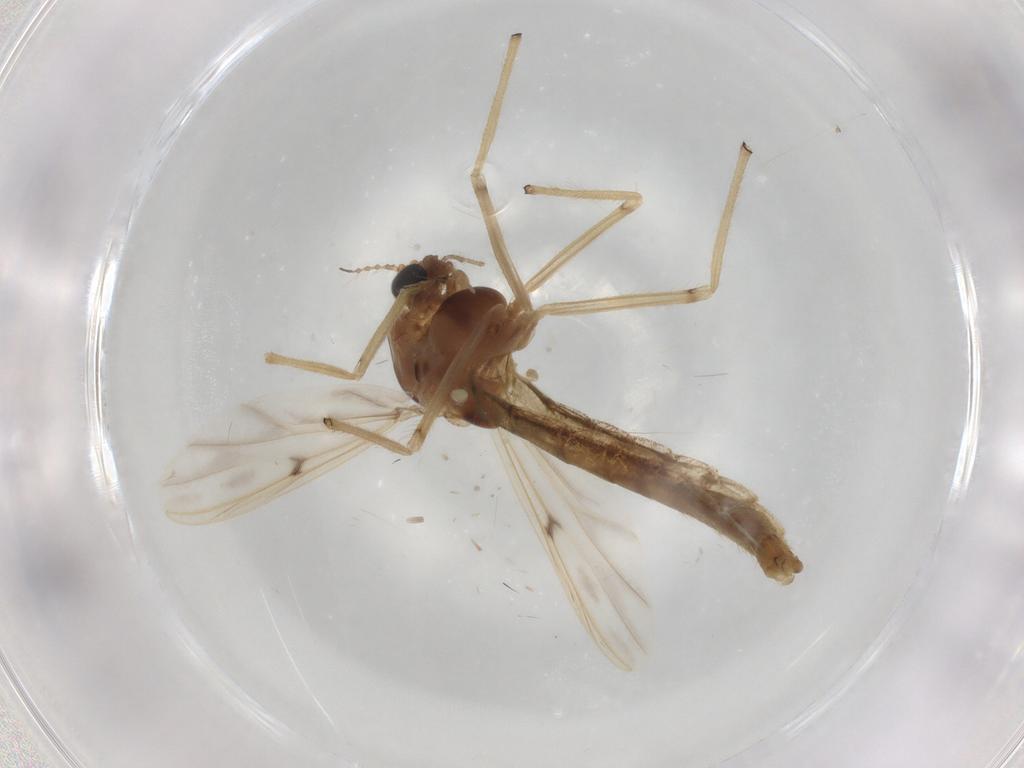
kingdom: Animalia
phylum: Arthropoda
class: Insecta
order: Diptera
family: Chironomidae
